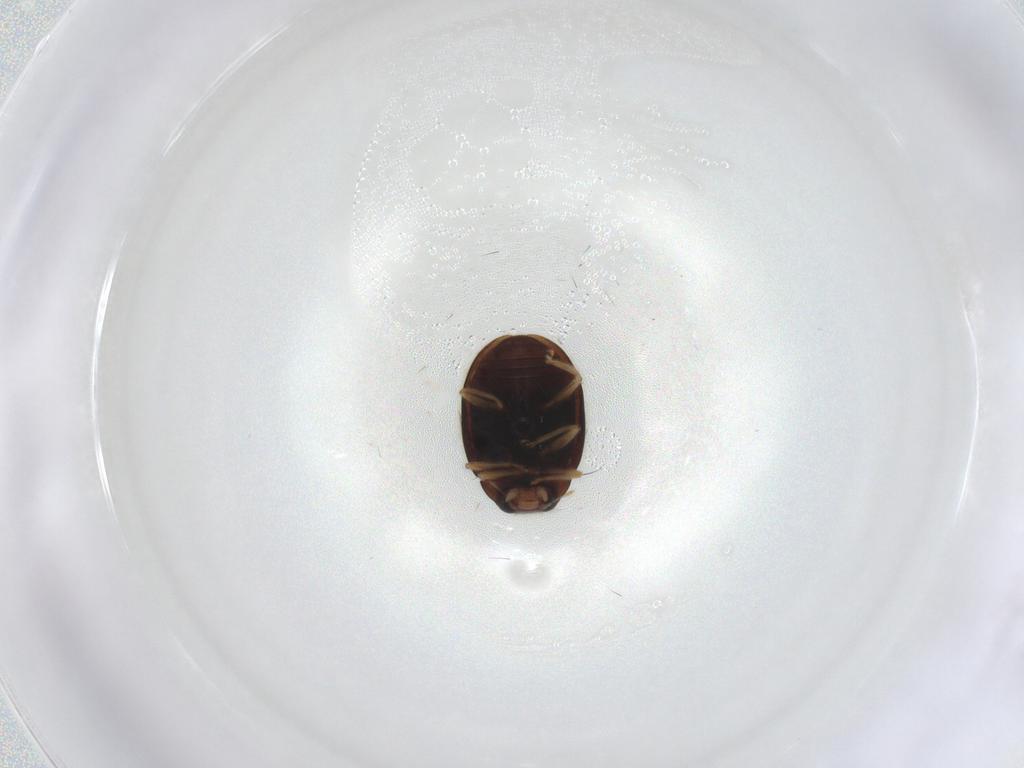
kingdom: Animalia
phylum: Arthropoda
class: Insecta
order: Coleoptera
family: Coccinellidae
